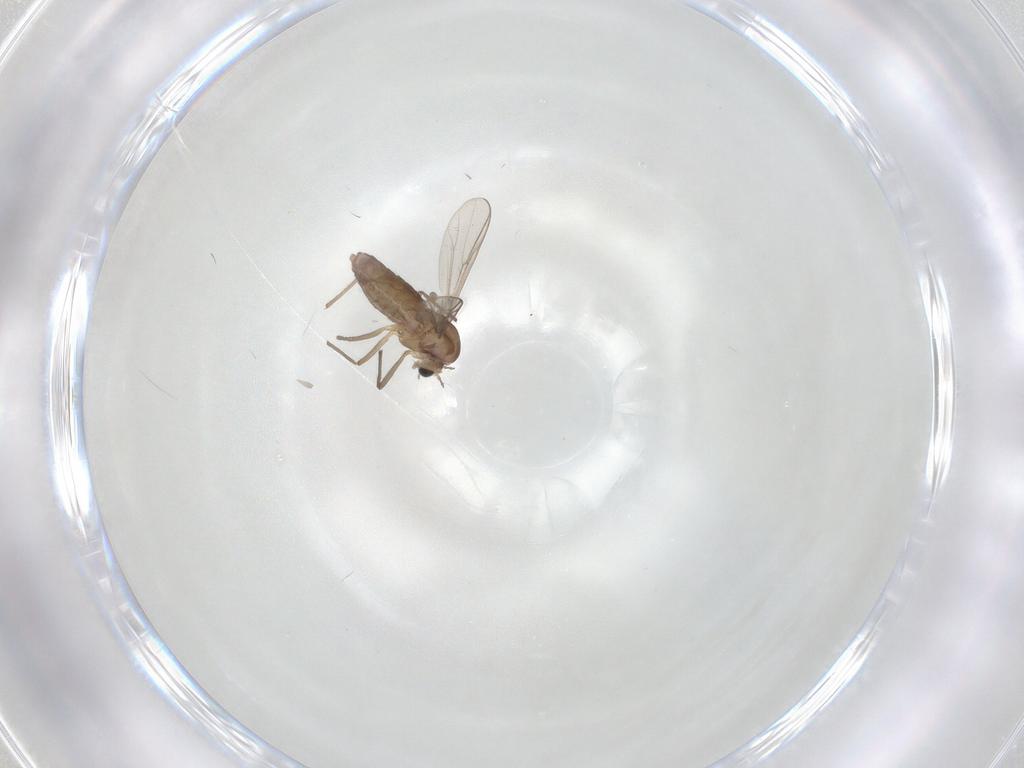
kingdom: Animalia
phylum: Arthropoda
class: Insecta
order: Diptera
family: Chironomidae
